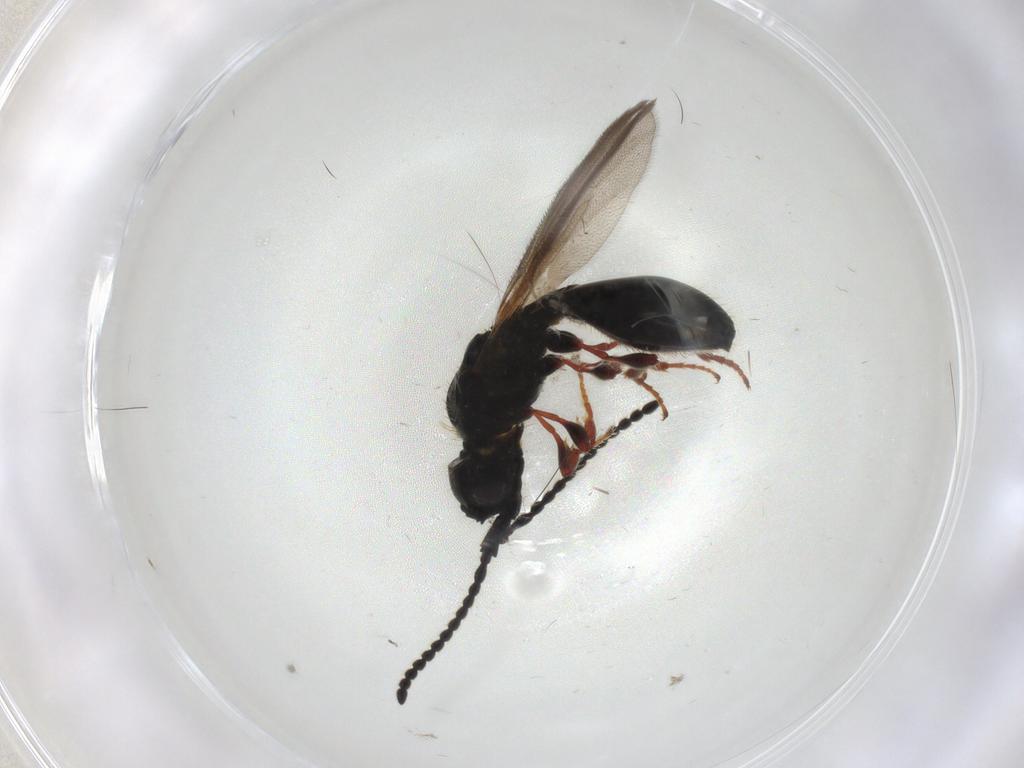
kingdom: Animalia
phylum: Arthropoda
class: Insecta
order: Hymenoptera
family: Diapriidae
